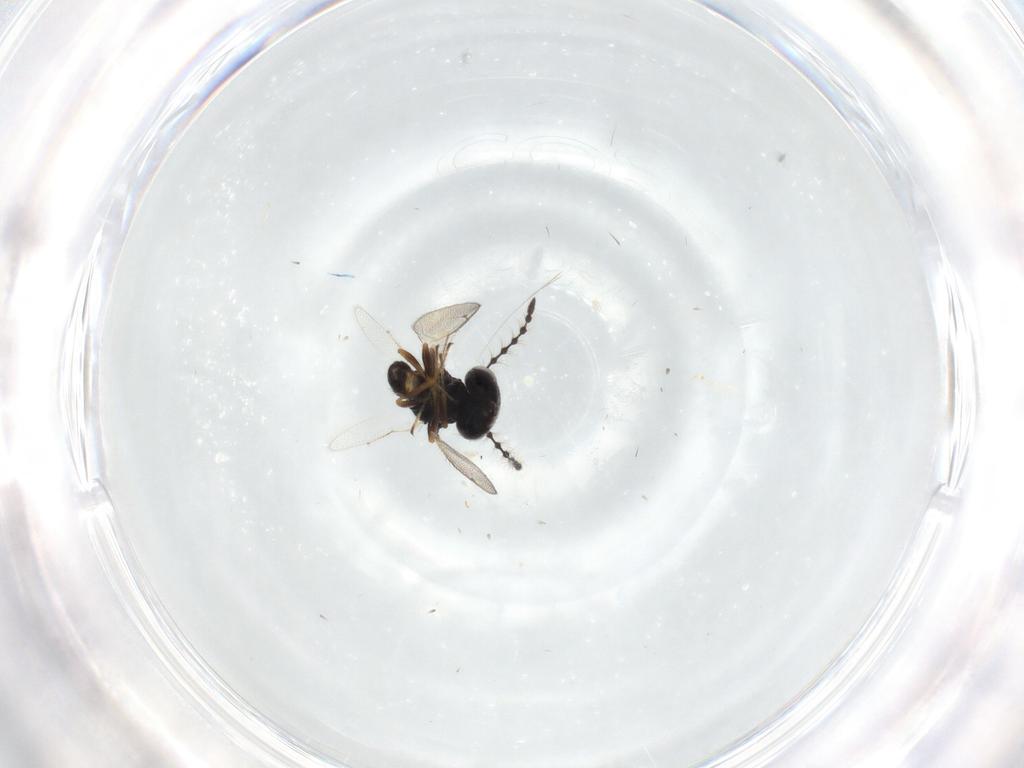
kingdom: Animalia
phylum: Arthropoda
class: Insecta
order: Hymenoptera
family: Pteromalidae
